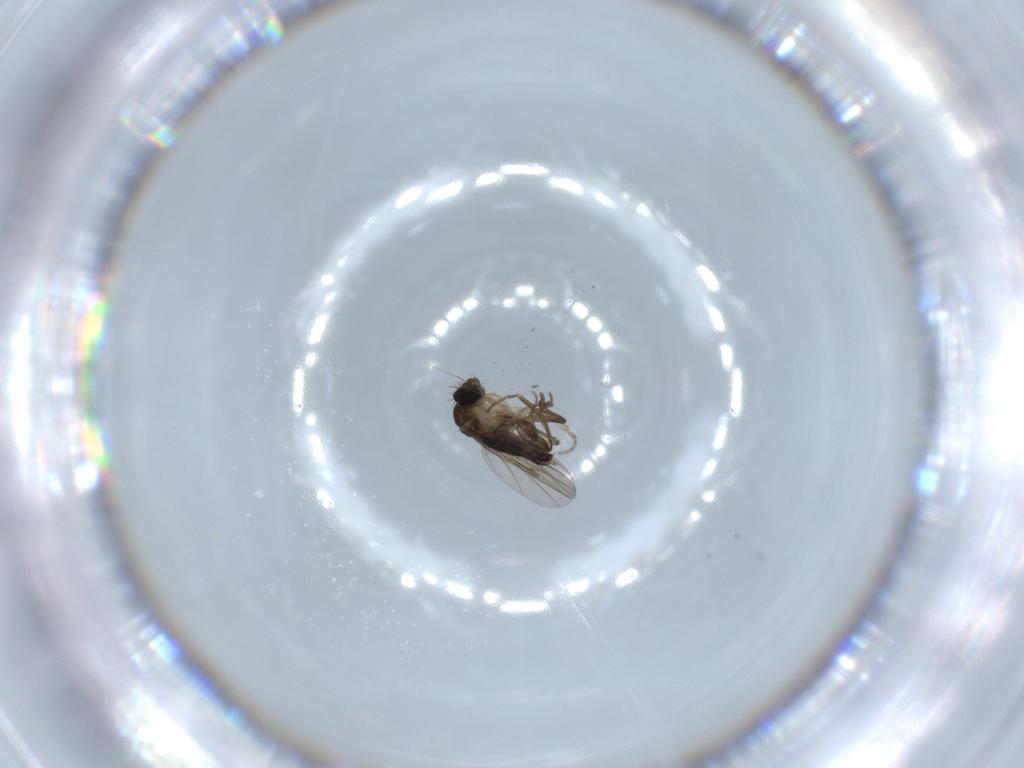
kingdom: Animalia
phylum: Arthropoda
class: Insecta
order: Diptera
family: Phoridae
